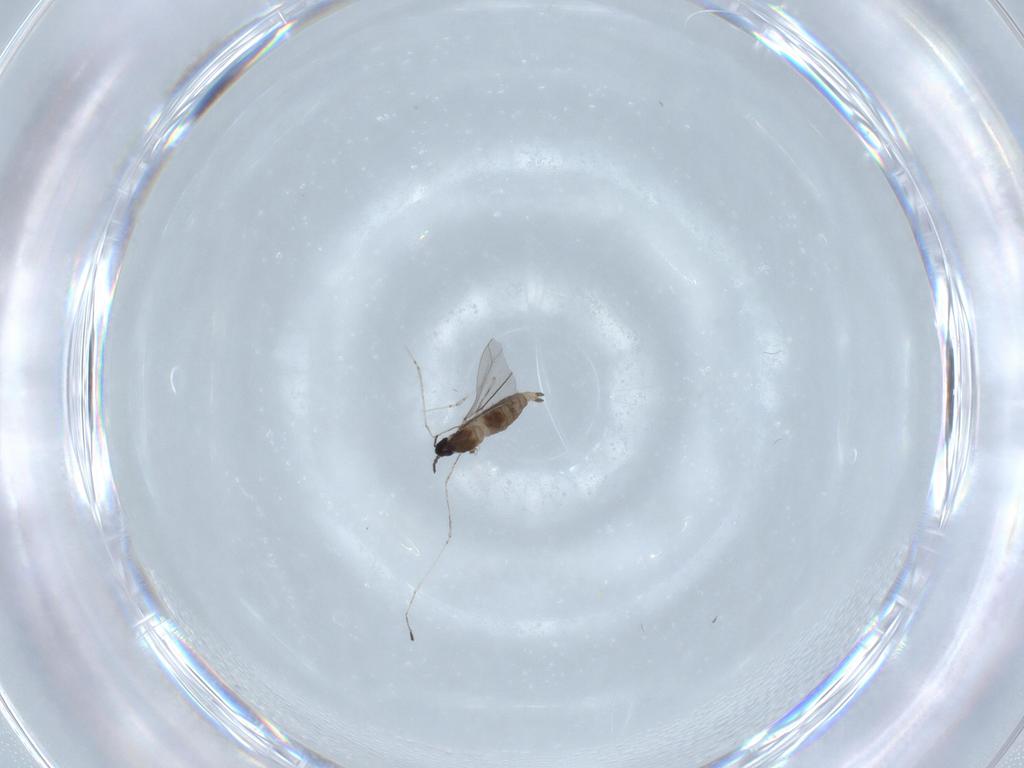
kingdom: Animalia
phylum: Arthropoda
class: Insecta
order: Diptera
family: Cecidomyiidae
